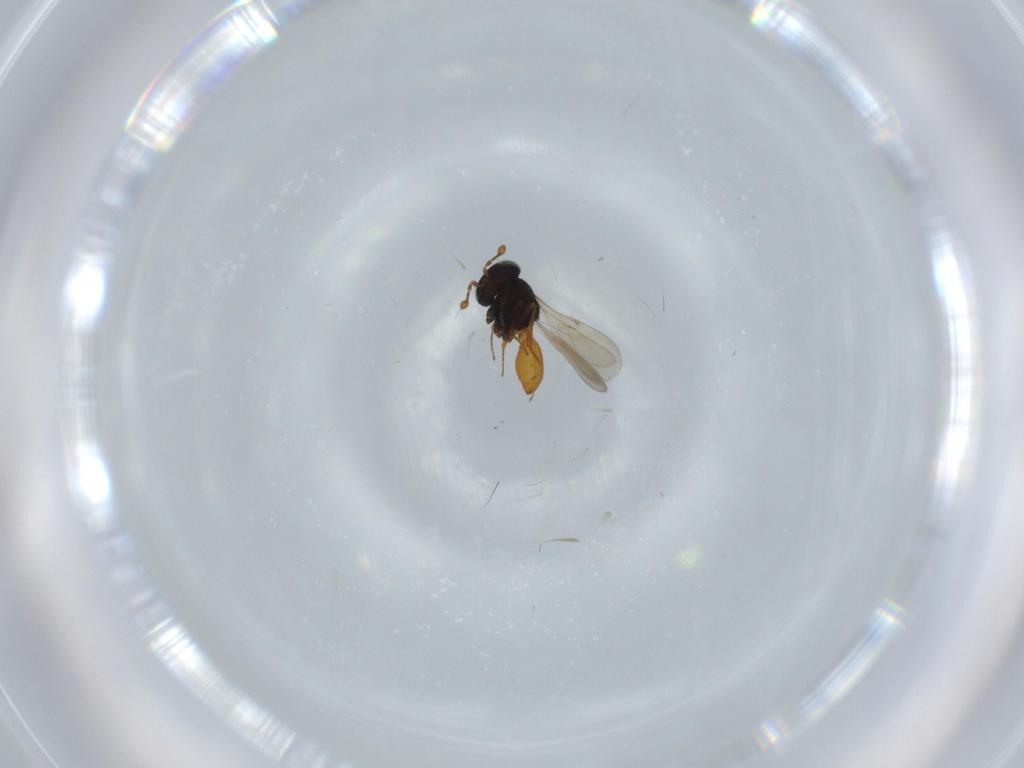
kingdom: Animalia
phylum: Arthropoda
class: Insecta
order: Hymenoptera
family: Scelionidae
